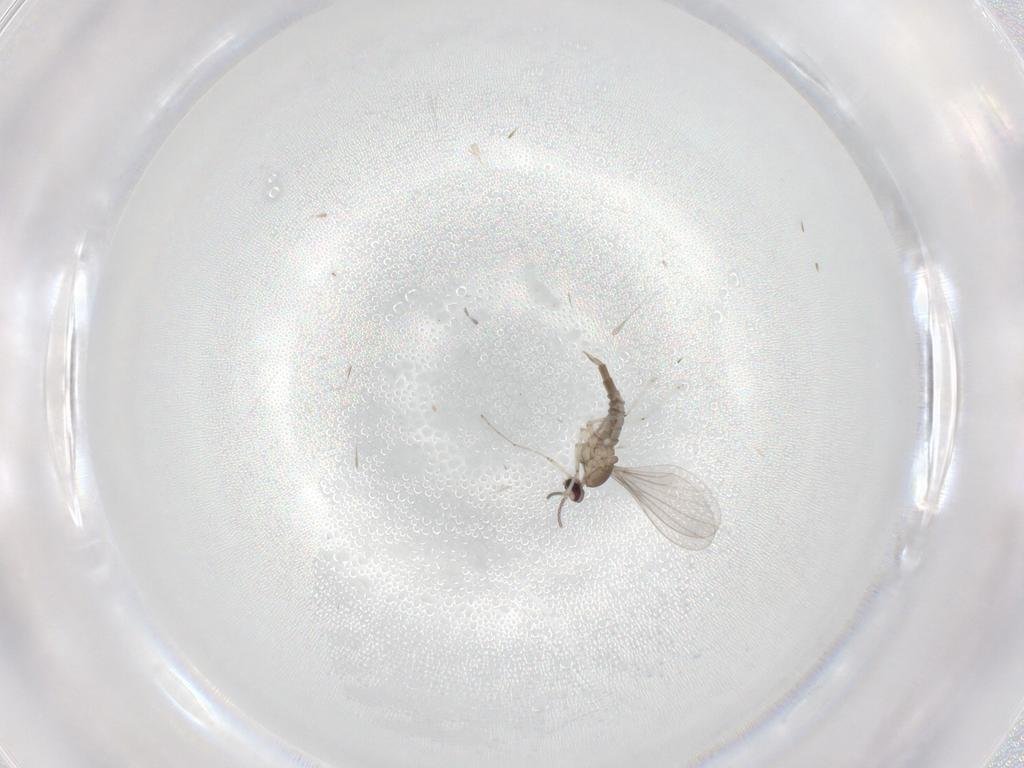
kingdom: Animalia
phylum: Arthropoda
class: Insecta
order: Diptera
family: Cecidomyiidae
